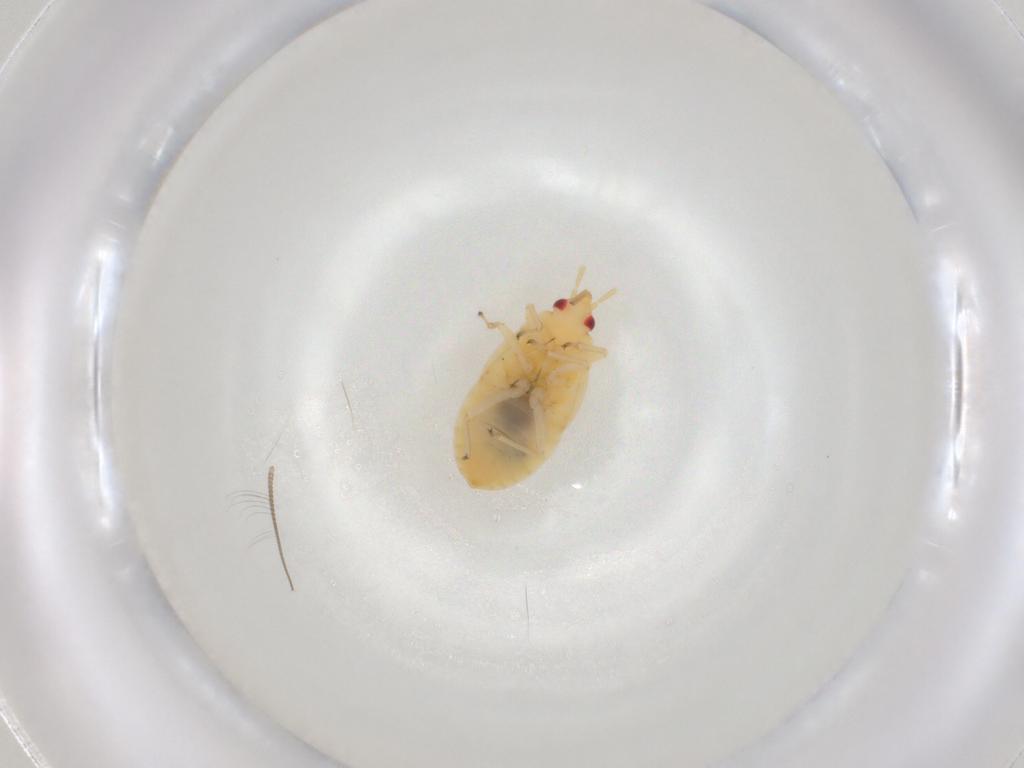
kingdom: Animalia
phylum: Arthropoda
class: Insecta
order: Hemiptera
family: Anthocoridae
